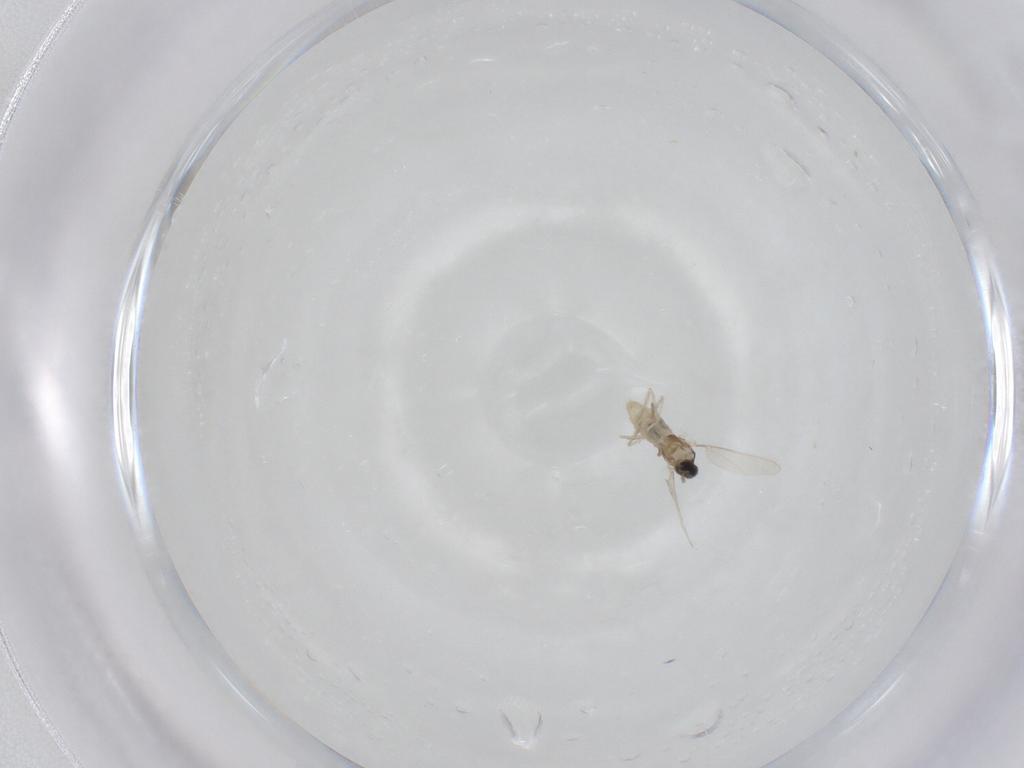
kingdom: Animalia
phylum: Arthropoda
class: Insecta
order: Diptera
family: Cecidomyiidae
